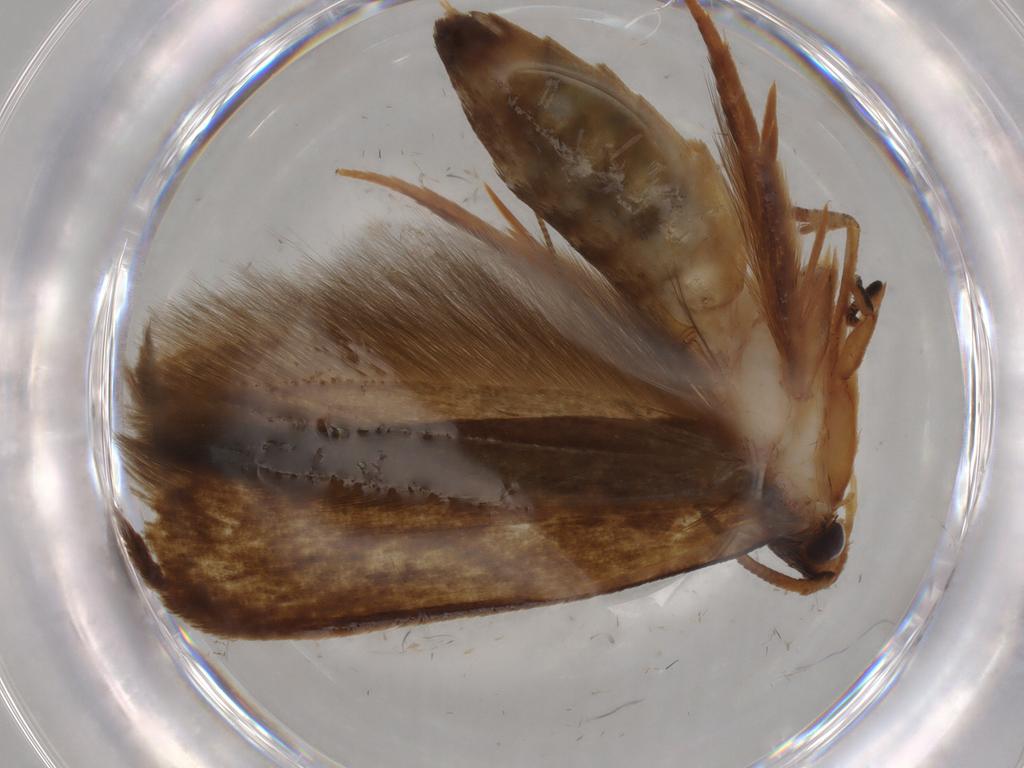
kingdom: Animalia
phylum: Arthropoda
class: Insecta
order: Lepidoptera
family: Tineidae
